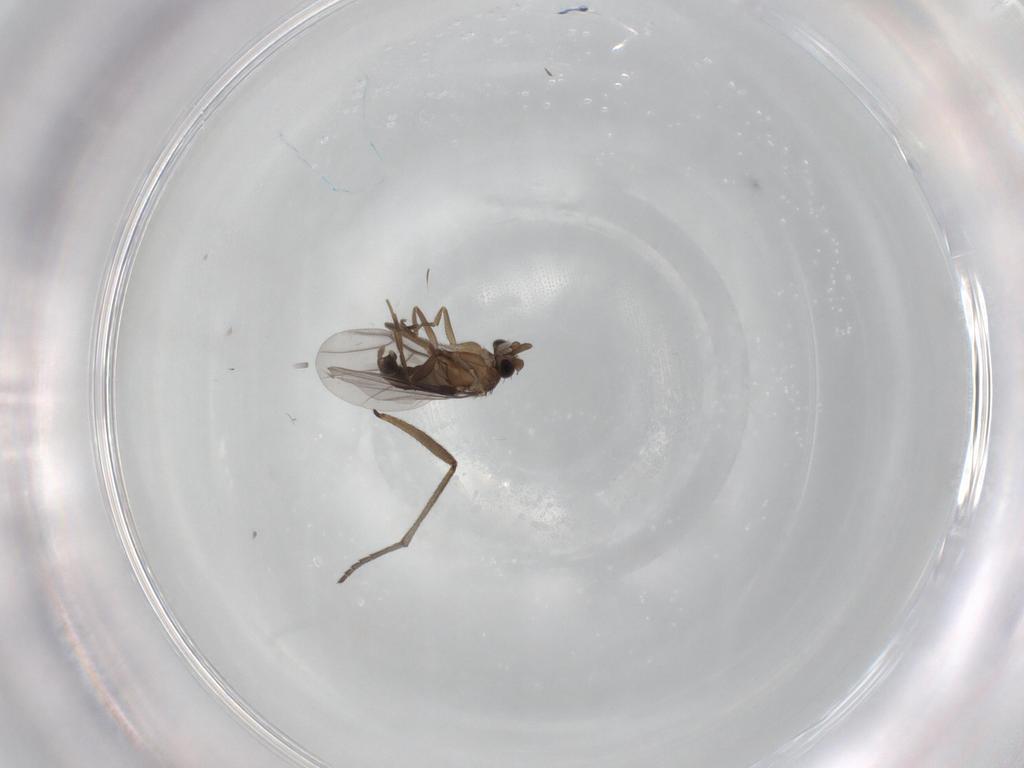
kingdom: Animalia
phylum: Arthropoda
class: Insecta
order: Diptera
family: Phoridae
